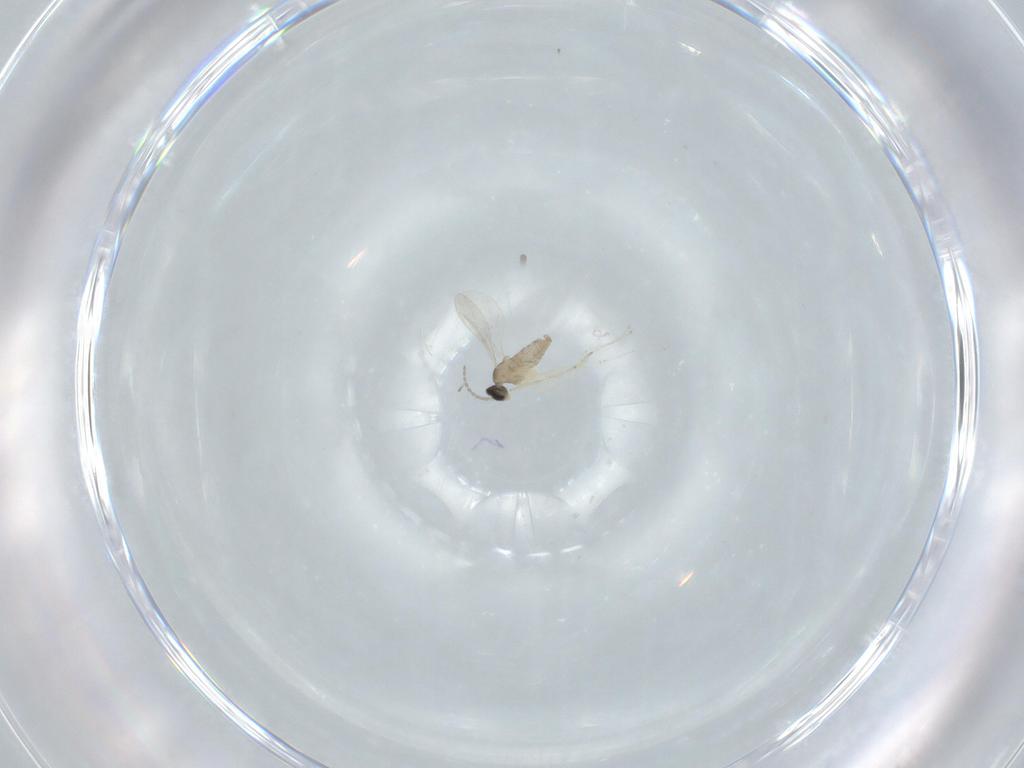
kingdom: Animalia
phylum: Arthropoda
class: Insecta
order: Diptera
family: Cecidomyiidae
